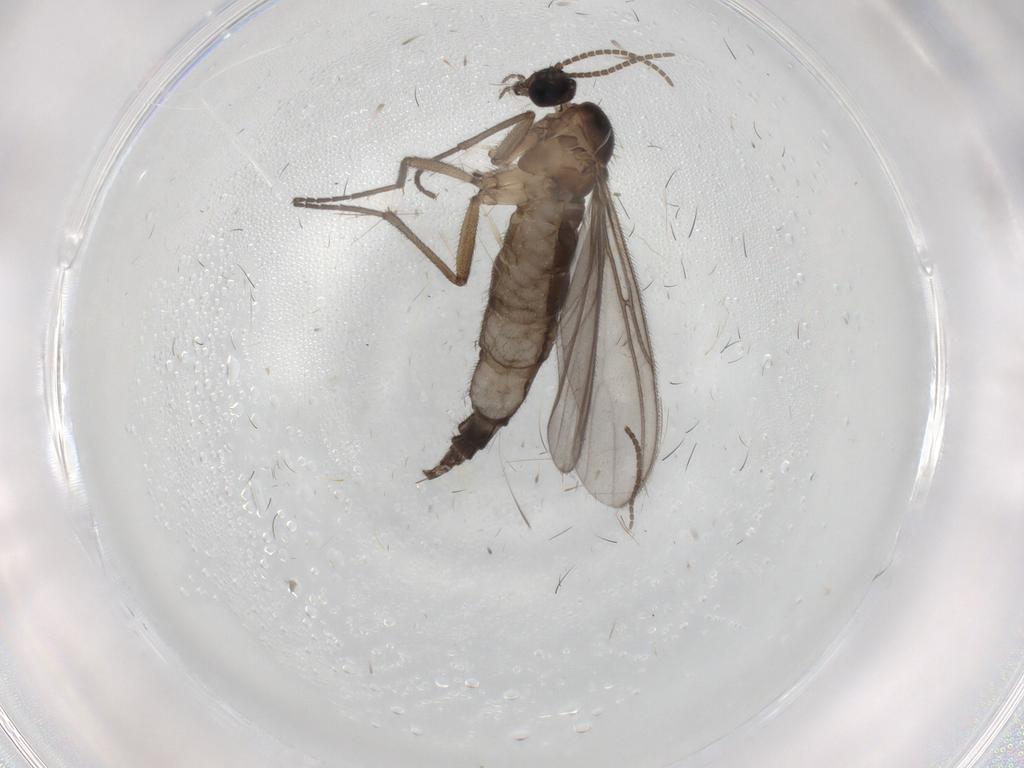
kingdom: Animalia
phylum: Arthropoda
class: Insecta
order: Diptera
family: Sciaridae
